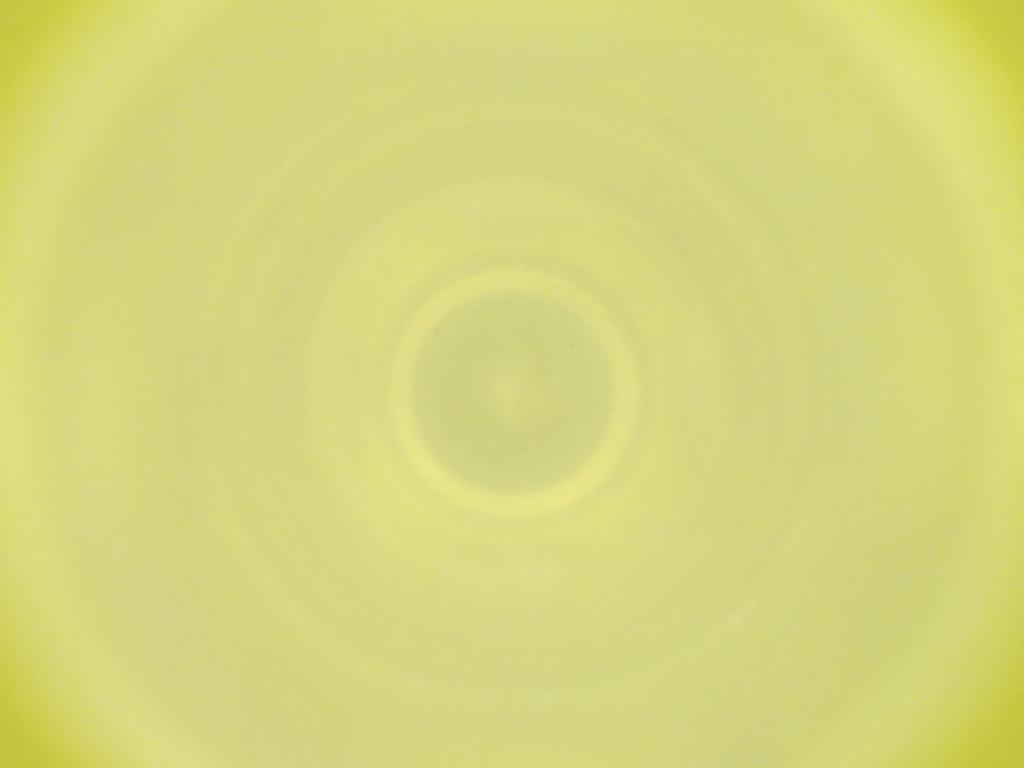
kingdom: Animalia
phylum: Arthropoda
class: Insecta
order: Diptera
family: Cecidomyiidae
